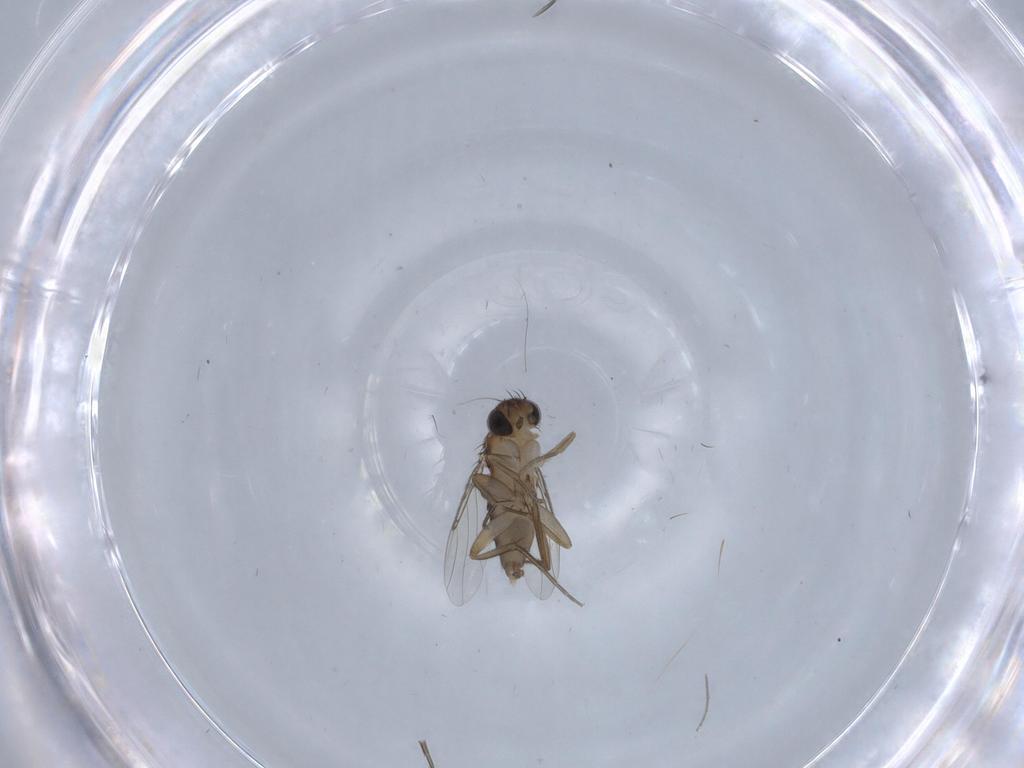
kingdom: Animalia
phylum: Arthropoda
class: Insecta
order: Diptera
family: Phoridae
